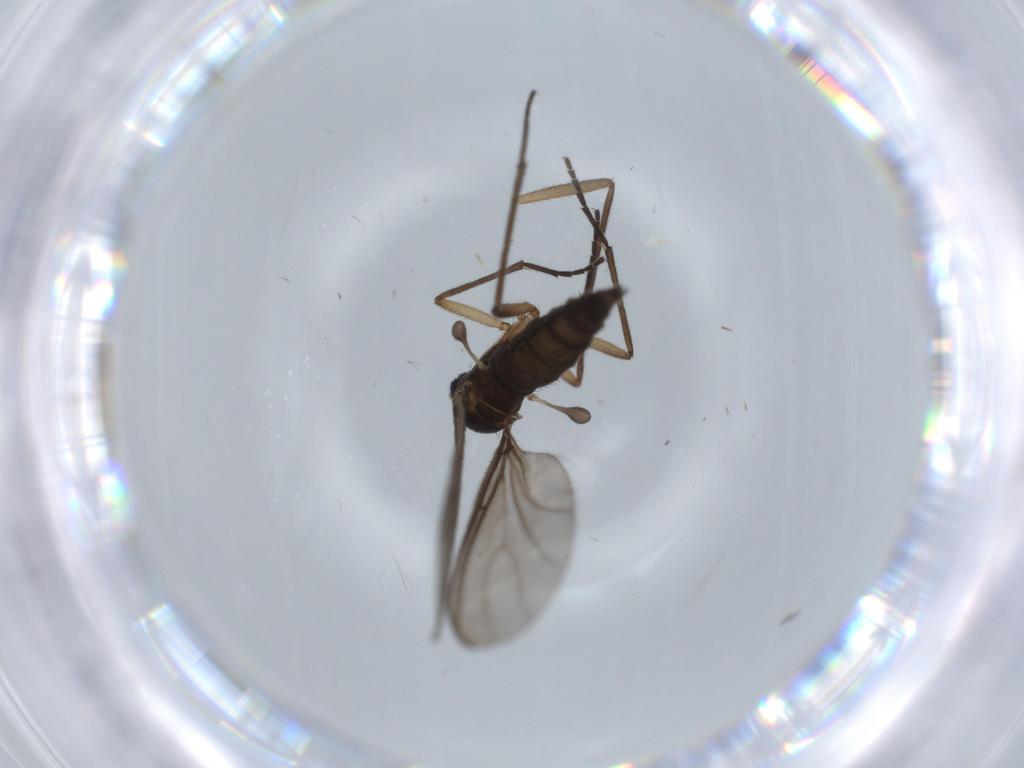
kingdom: Animalia
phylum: Arthropoda
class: Insecta
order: Diptera
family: Sciaridae
